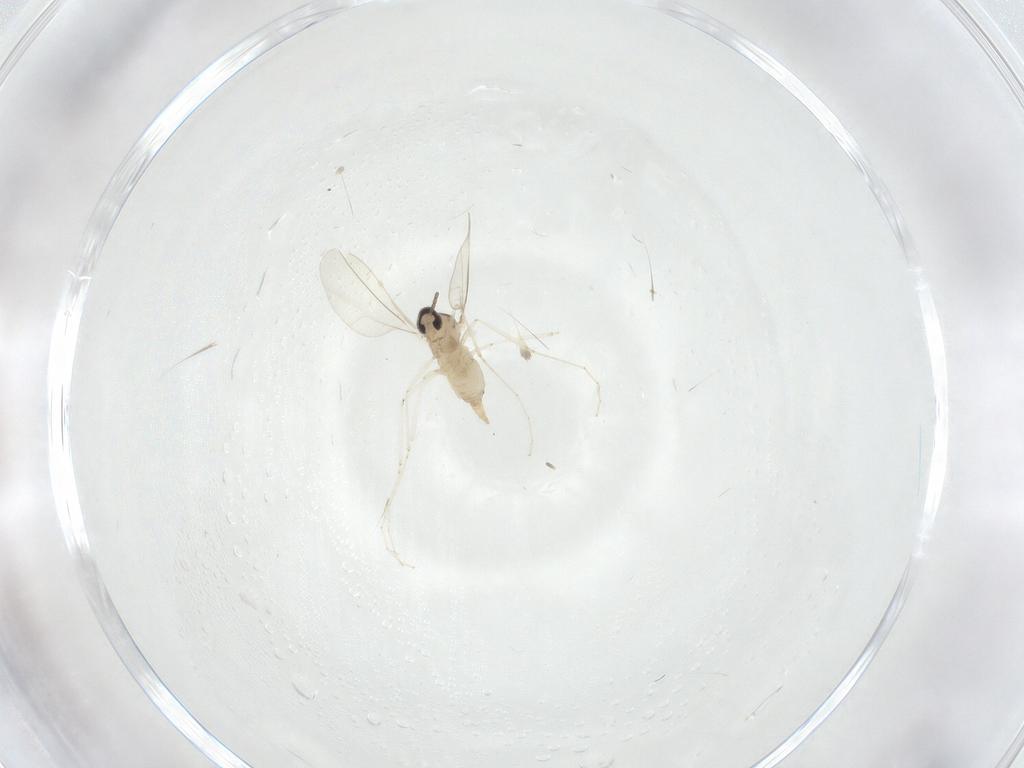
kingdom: Animalia
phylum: Arthropoda
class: Insecta
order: Diptera
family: Cecidomyiidae
